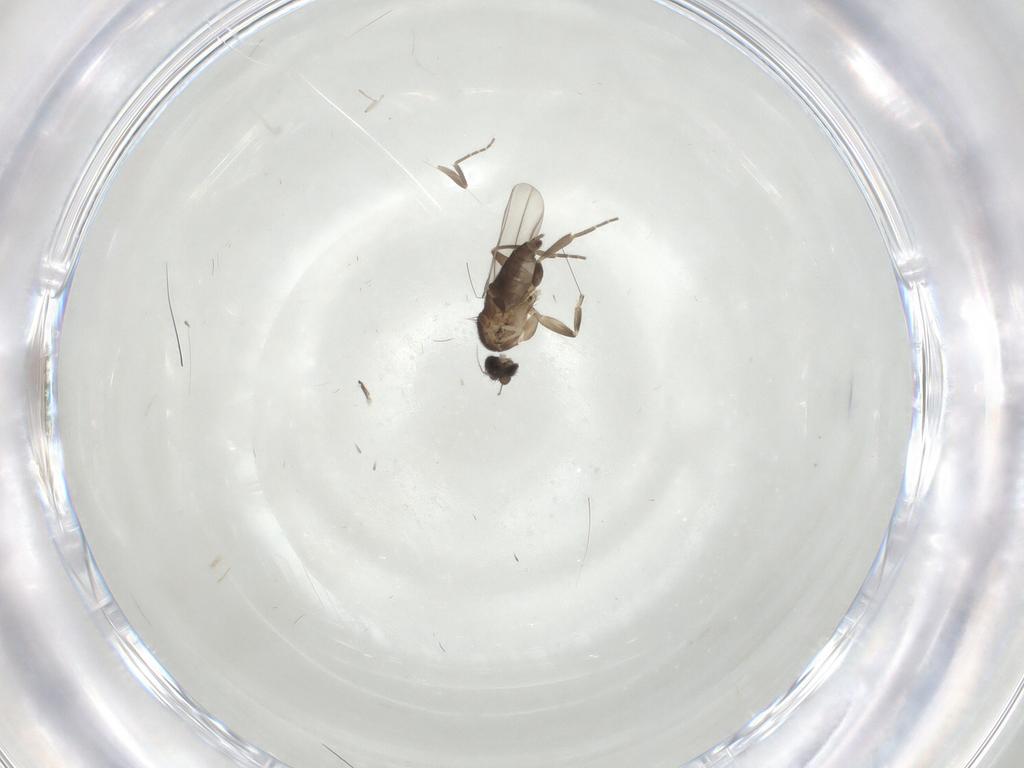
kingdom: Animalia
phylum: Arthropoda
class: Insecta
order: Diptera
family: Phoridae
